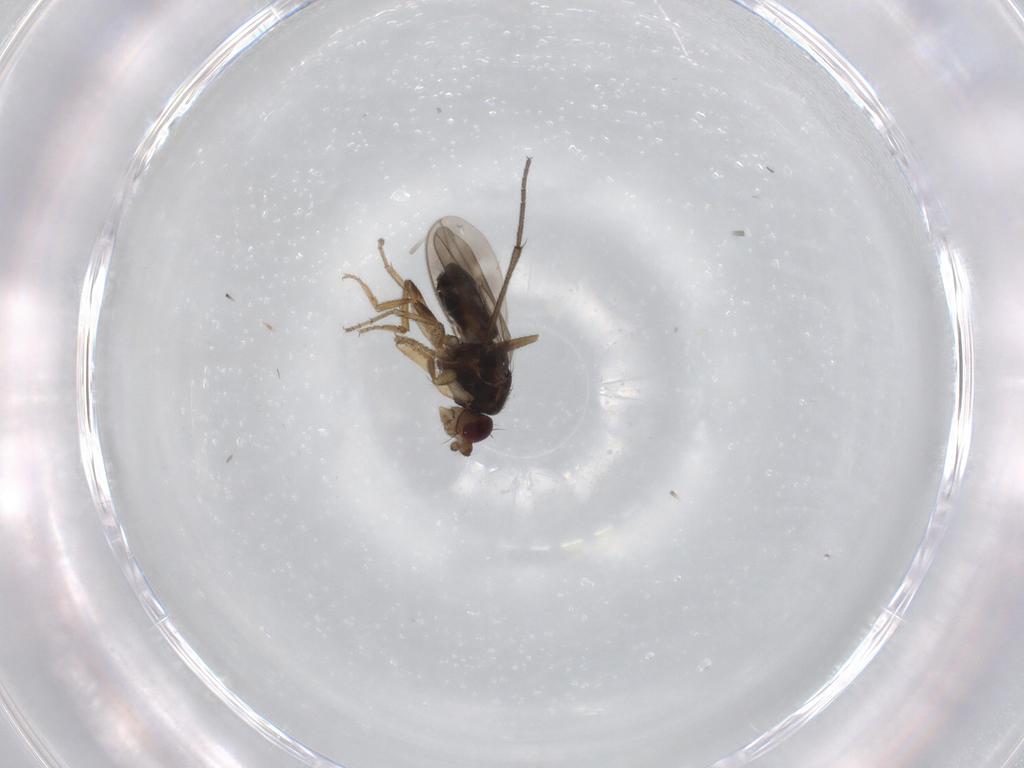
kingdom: Animalia
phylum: Arthropoda
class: Insecta
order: Diptera
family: Sphaeroceridae
